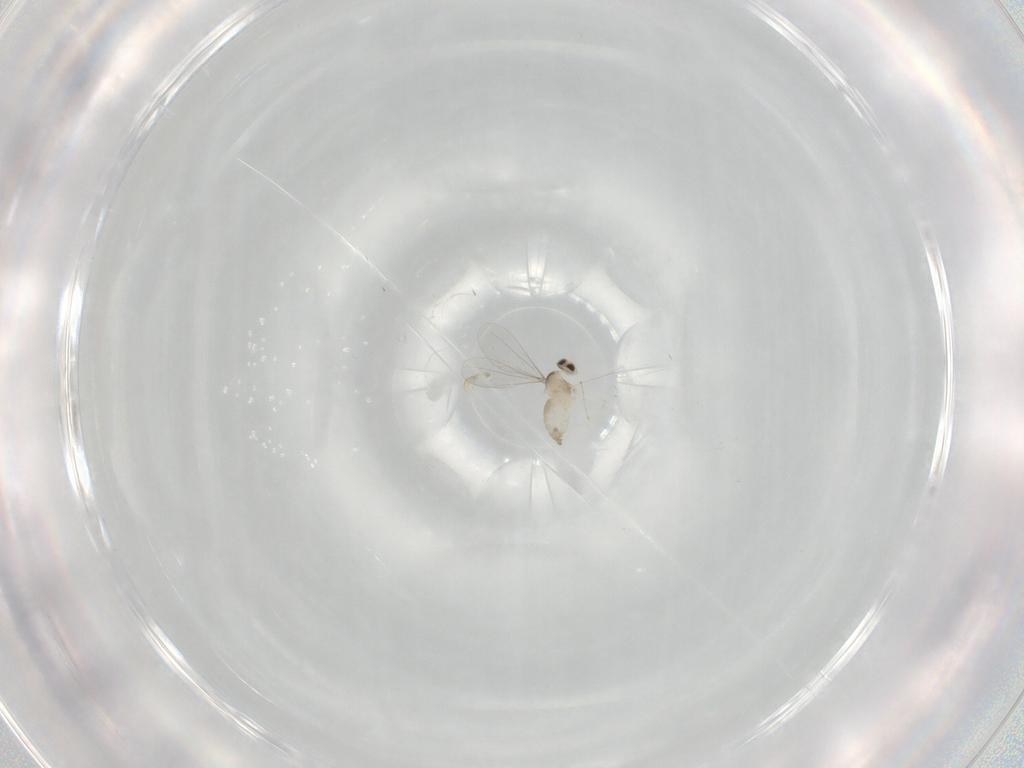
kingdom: Animalia
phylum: Arthropoda
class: Insecta
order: Diptera
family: Cecidomyiidae
